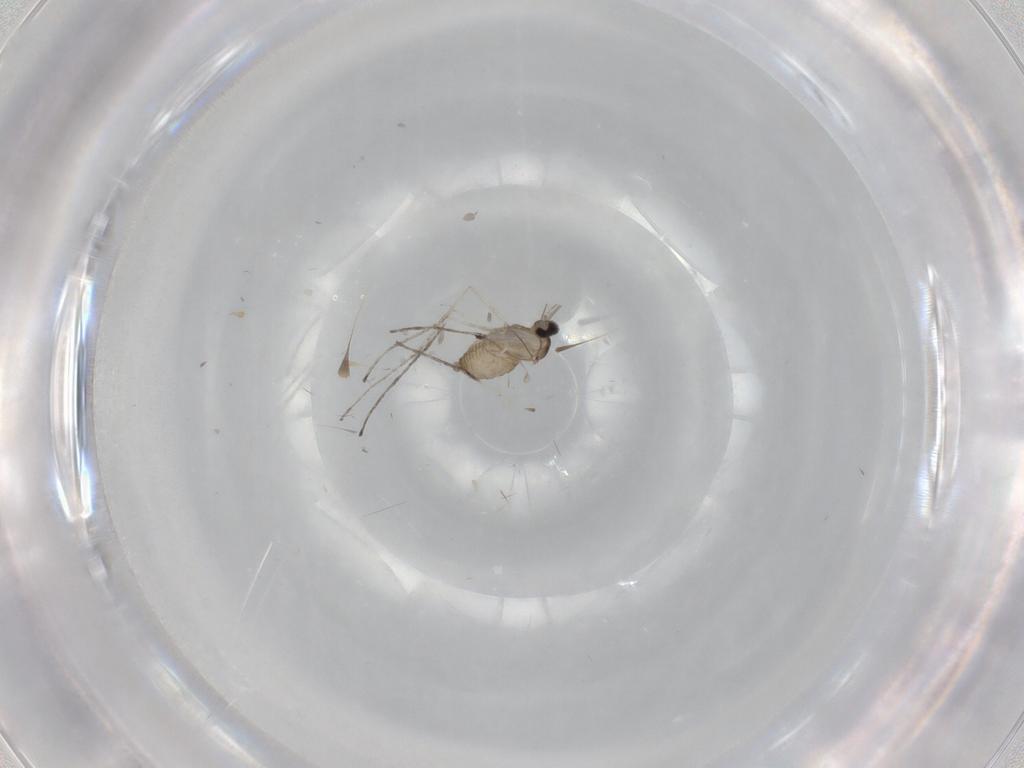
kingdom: Animalia
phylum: Arthropoda
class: Insecta
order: Diptera
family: Cecidomyiidae
